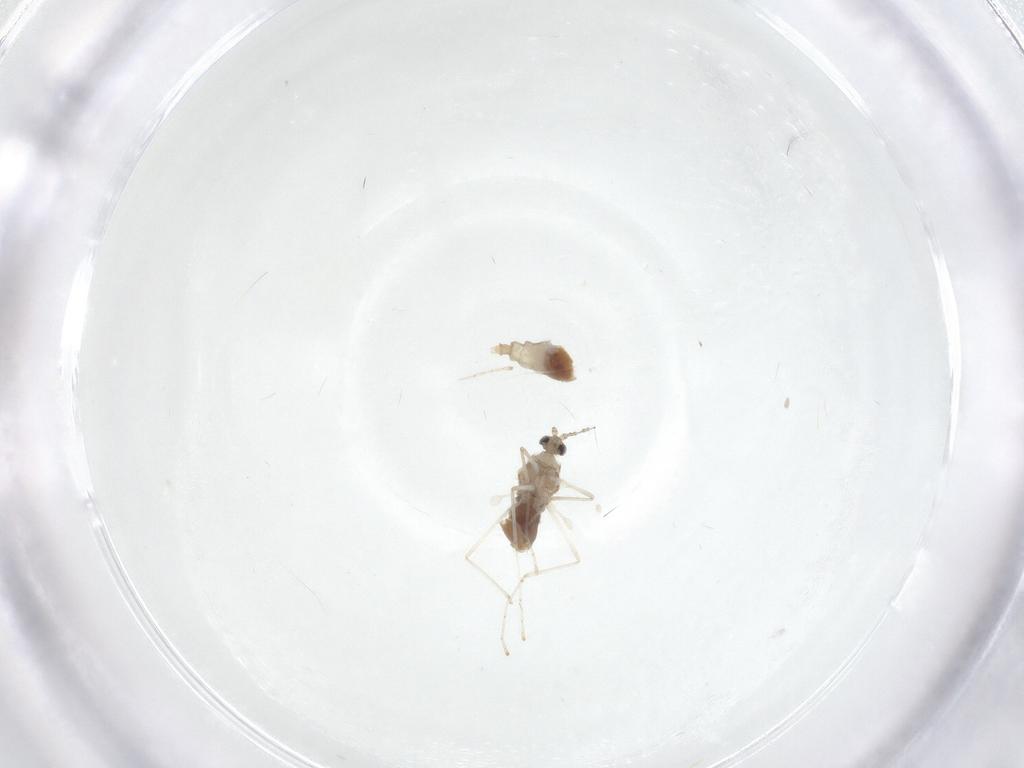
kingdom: Animalia
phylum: Arthropoda
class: Insecta
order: Diptera
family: Cecidomyiidae
